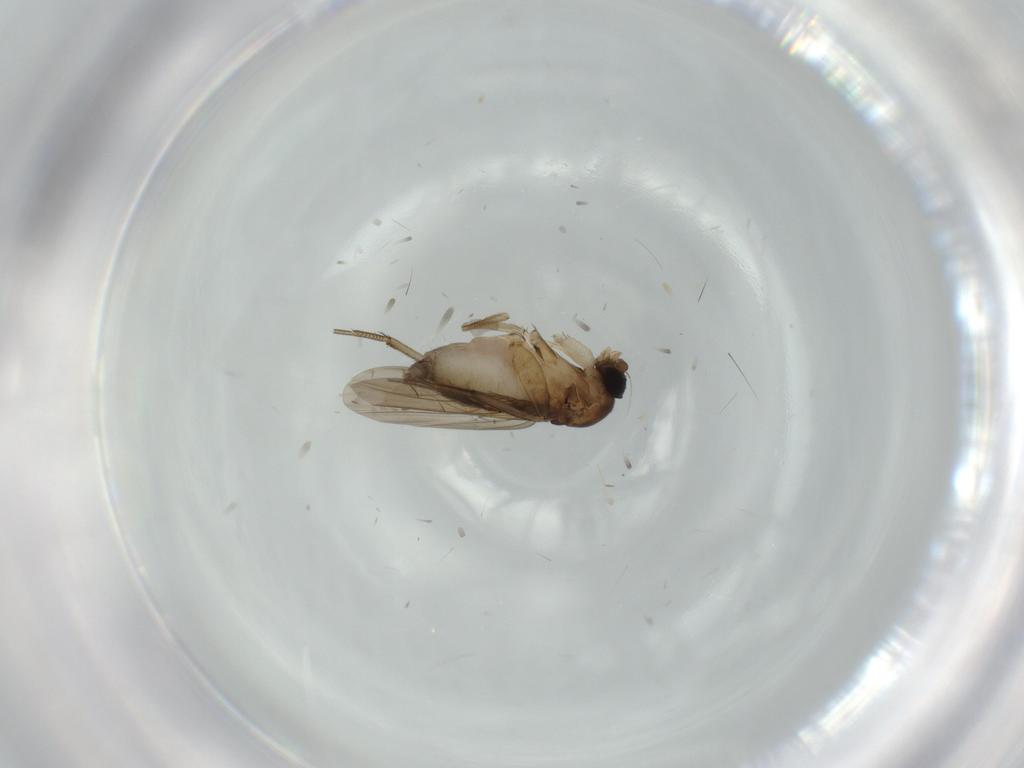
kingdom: Animalia
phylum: Arthropoda
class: Insecta
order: Diptera
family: Phoridae
